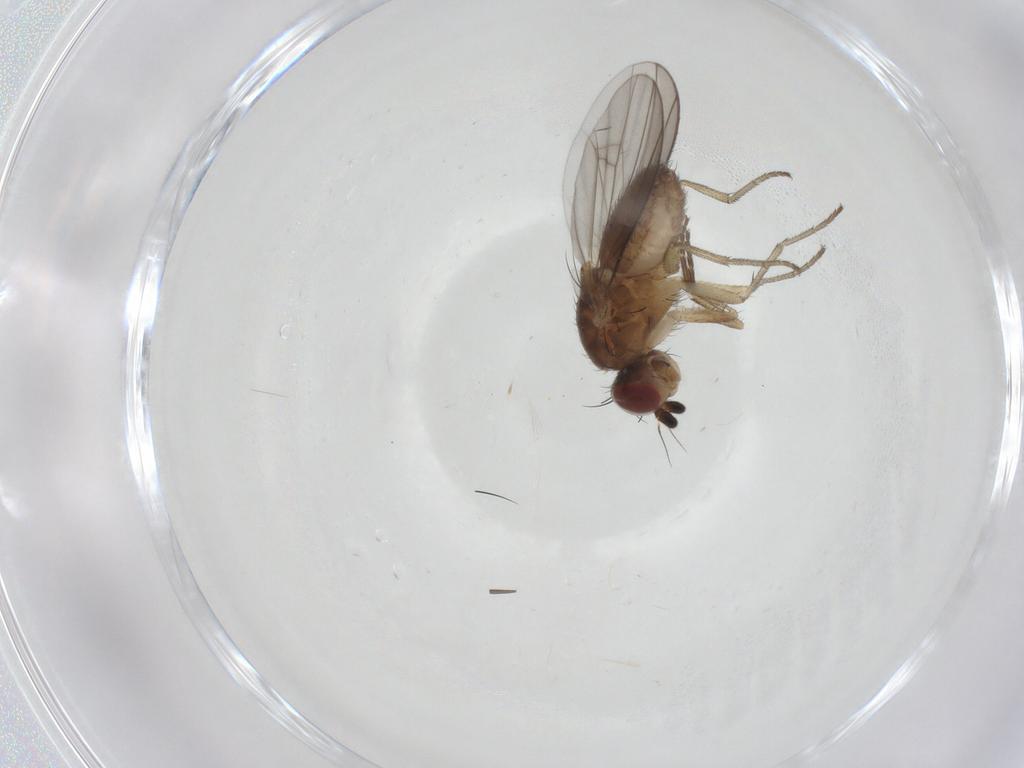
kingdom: Animalia
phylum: Arthropoda
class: Insecta
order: Diptera
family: Heleomyzidae
